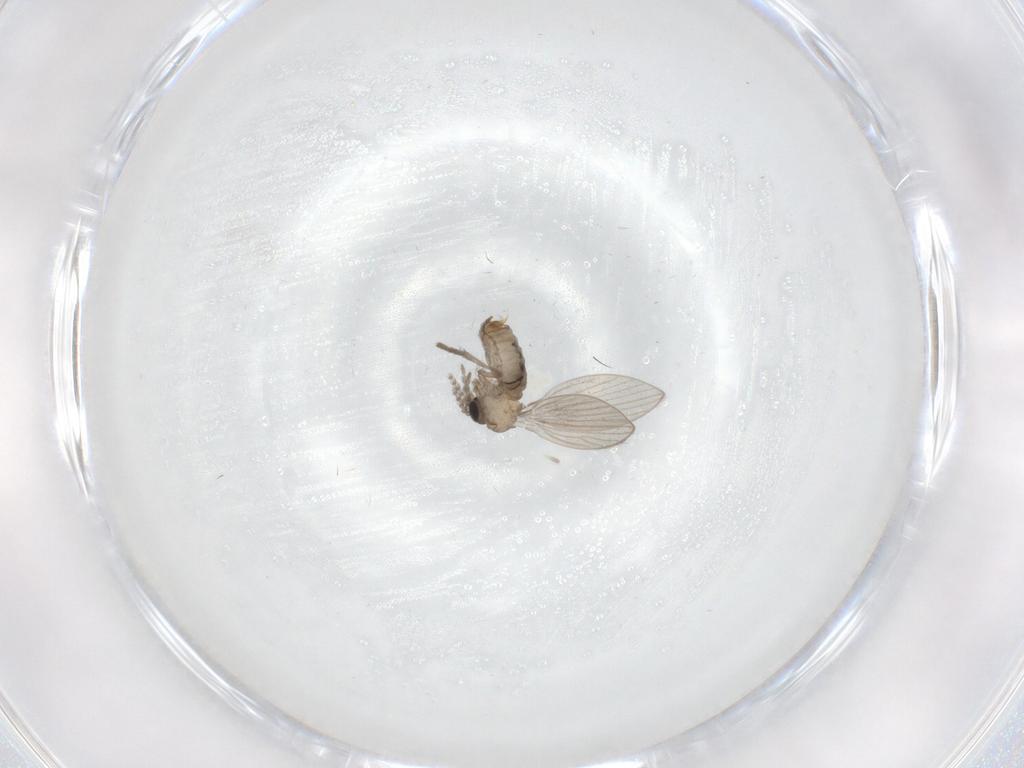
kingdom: Animalia
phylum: Arthropoda
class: Insecta
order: Diptera
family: Psychodidae
